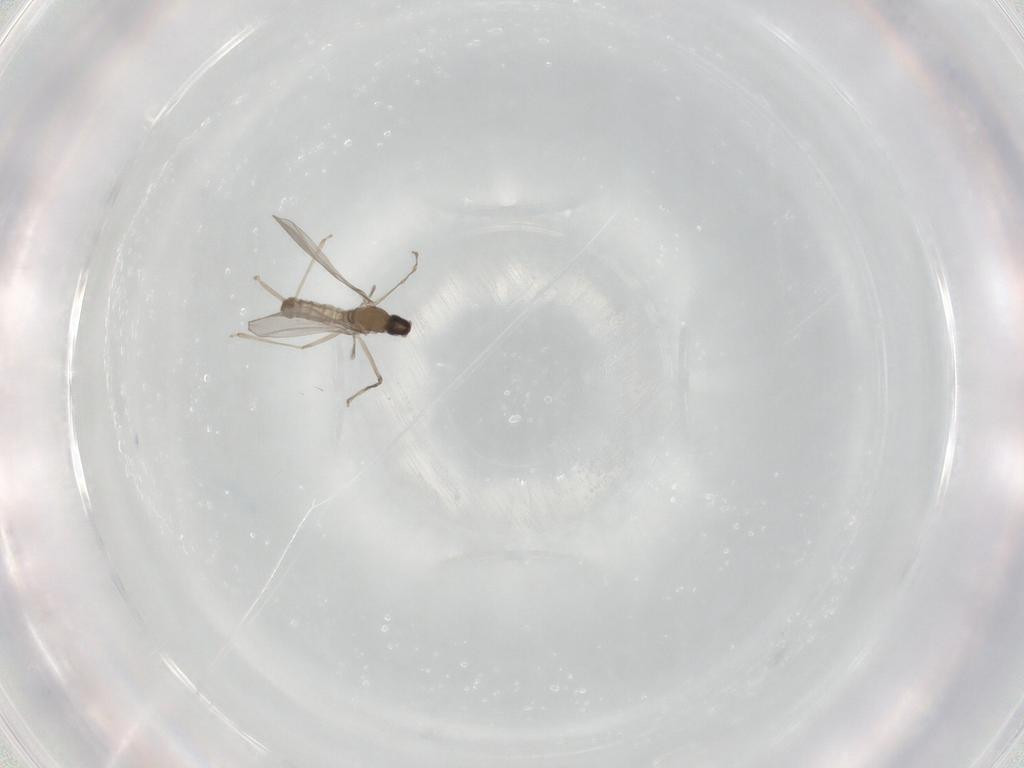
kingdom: Animalia
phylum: Arthropoda
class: Insecta
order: Diptera
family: Cecidomyiidae
